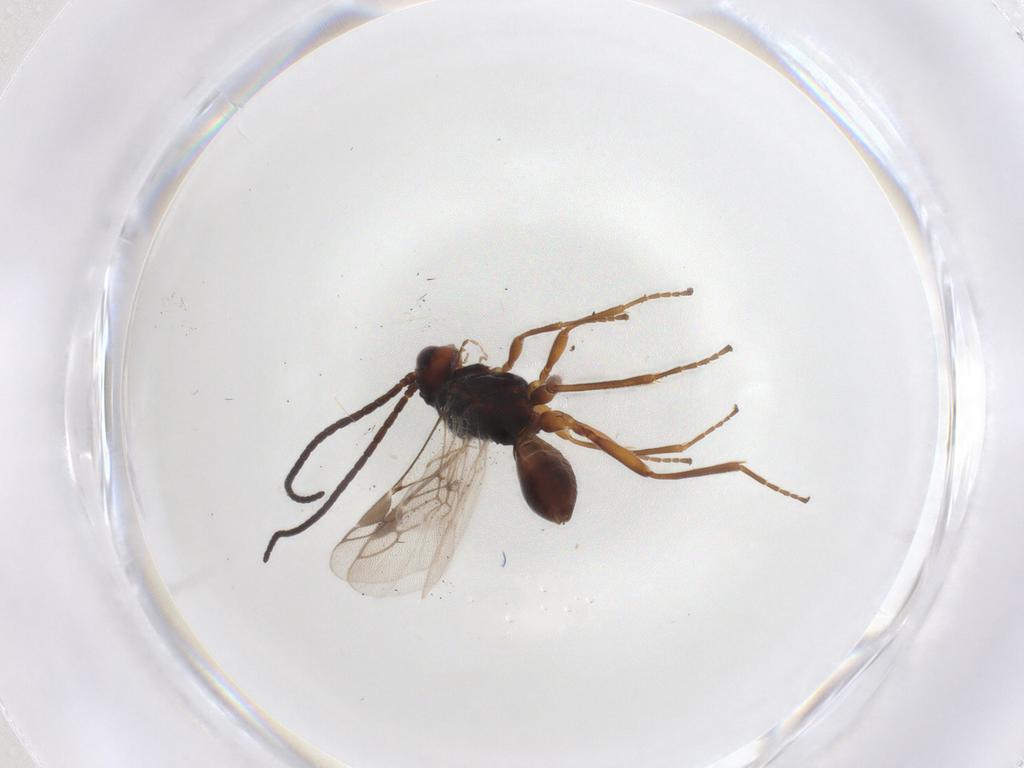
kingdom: Animalia
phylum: Arthropoda
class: Insecta
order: Hymenoptera
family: Braconidae
